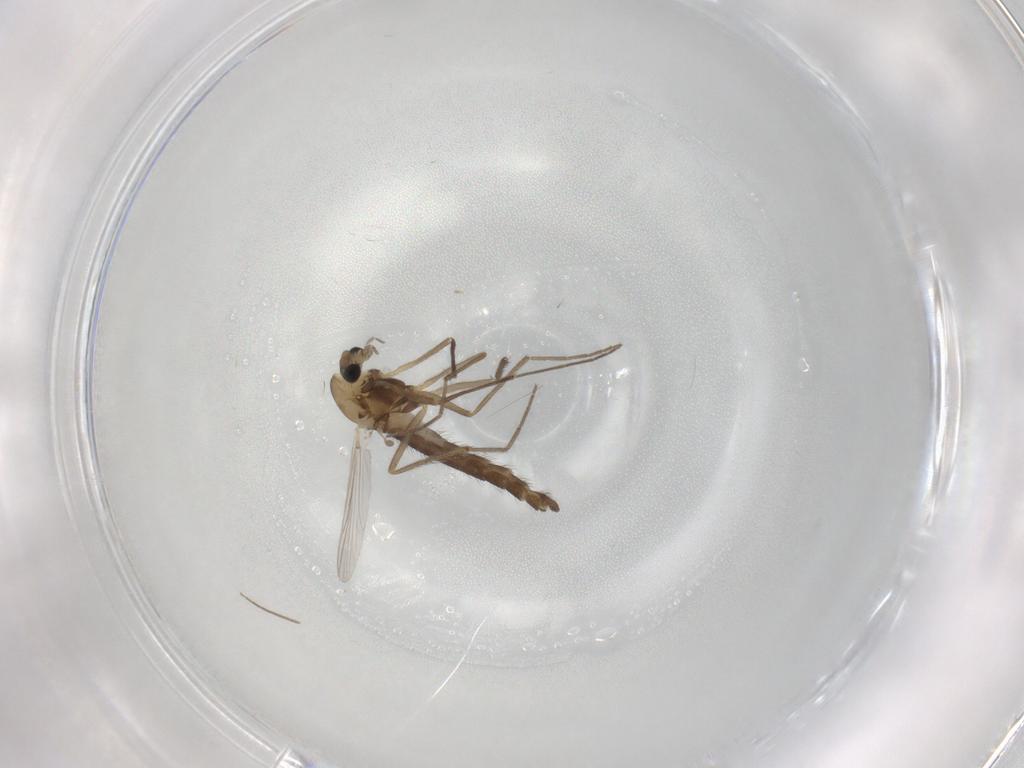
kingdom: Animalia
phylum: Arthropoda
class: Insecta
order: Diptera
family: Chironomidae
